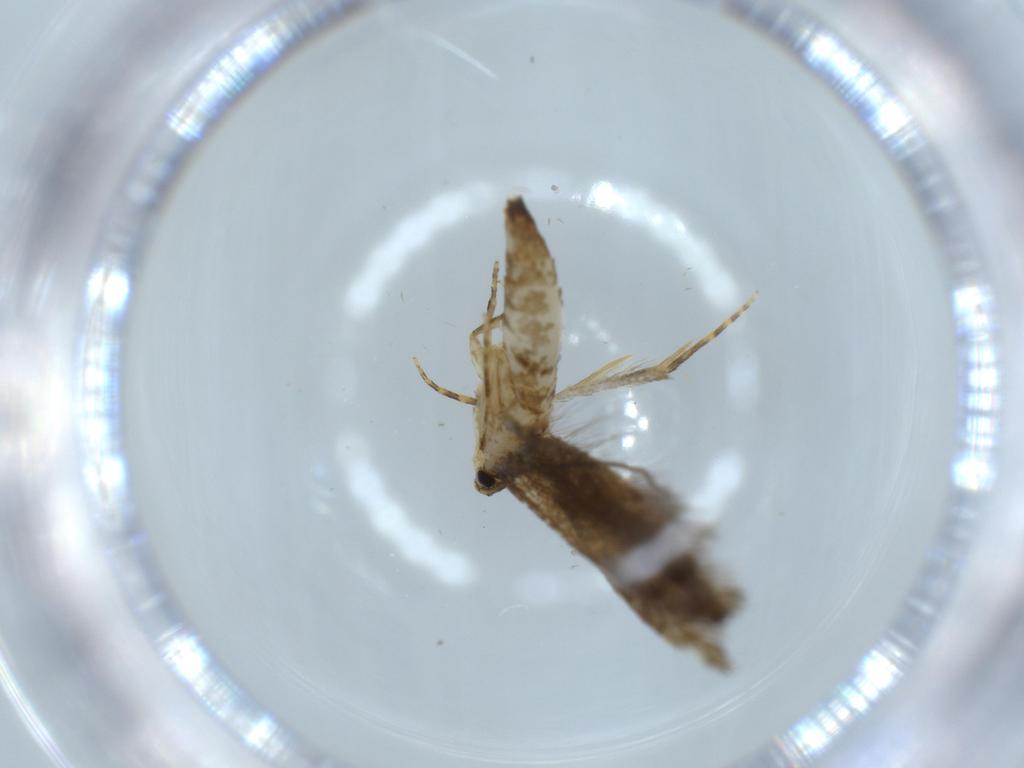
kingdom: Animalia
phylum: Arthropoda
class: Insecta
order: Lepidoptera
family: Tineidae
